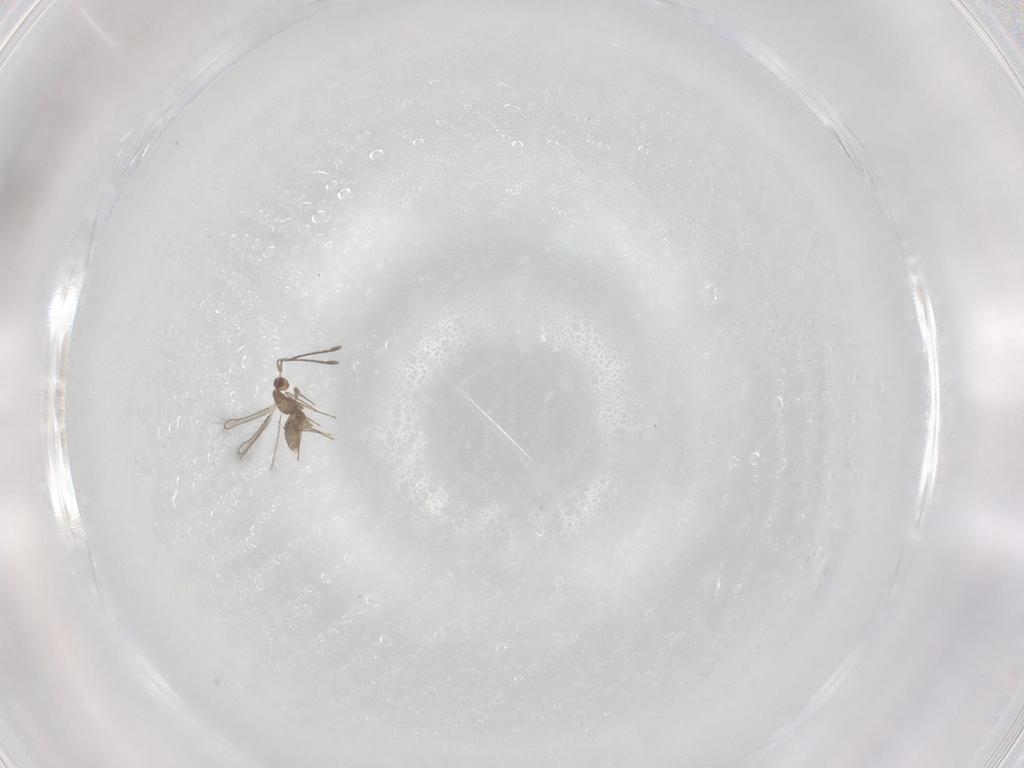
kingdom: Animalia
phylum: Arthropoda
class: Insecta
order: Hymenoptera
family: Mymaridae
